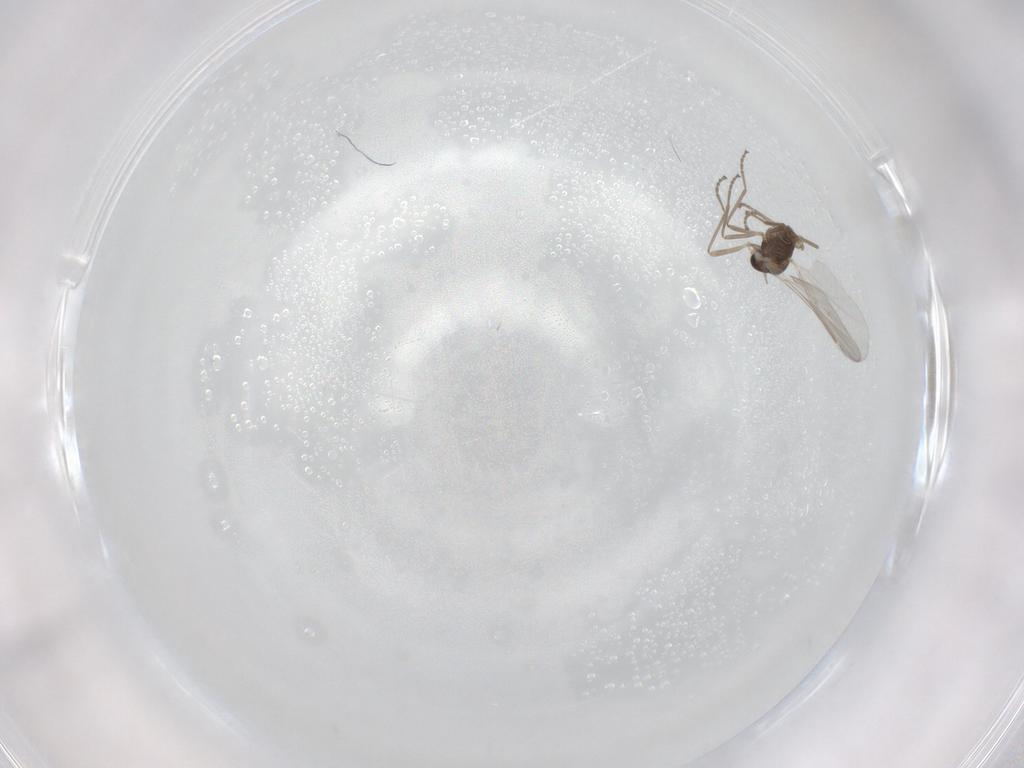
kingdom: Animalia
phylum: Arthropoda
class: Insecta
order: Diptera
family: Cecidomyiidae
